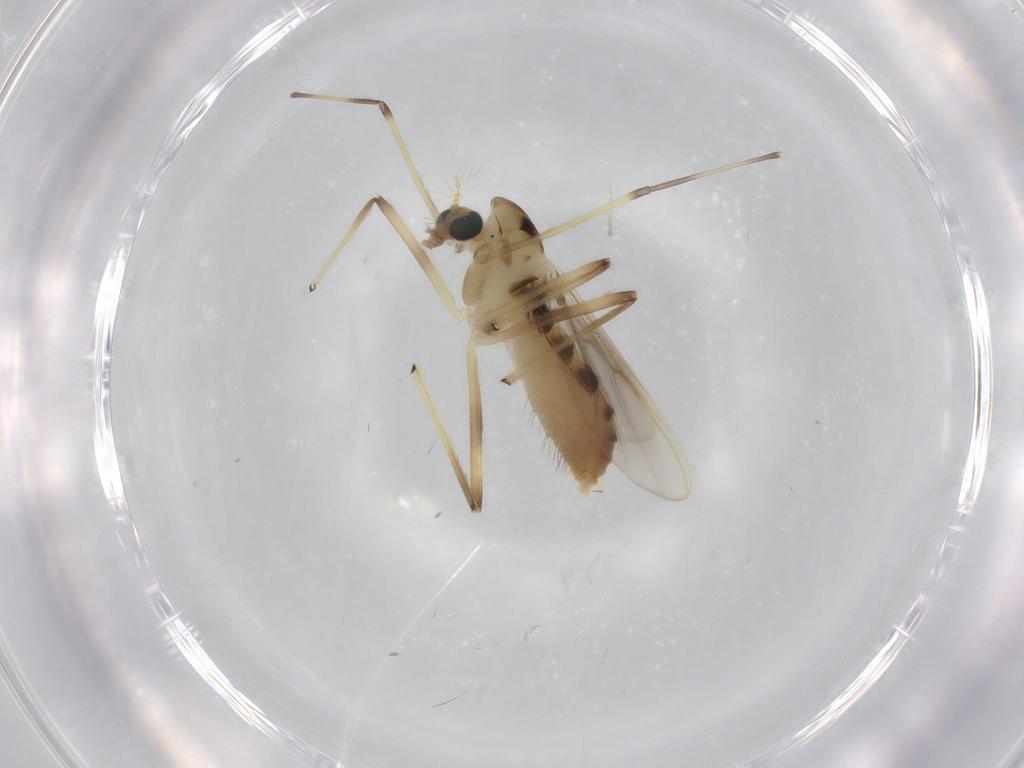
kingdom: Animalia
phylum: Arthropoda
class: Insecta
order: Diptera
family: Chironomidae
